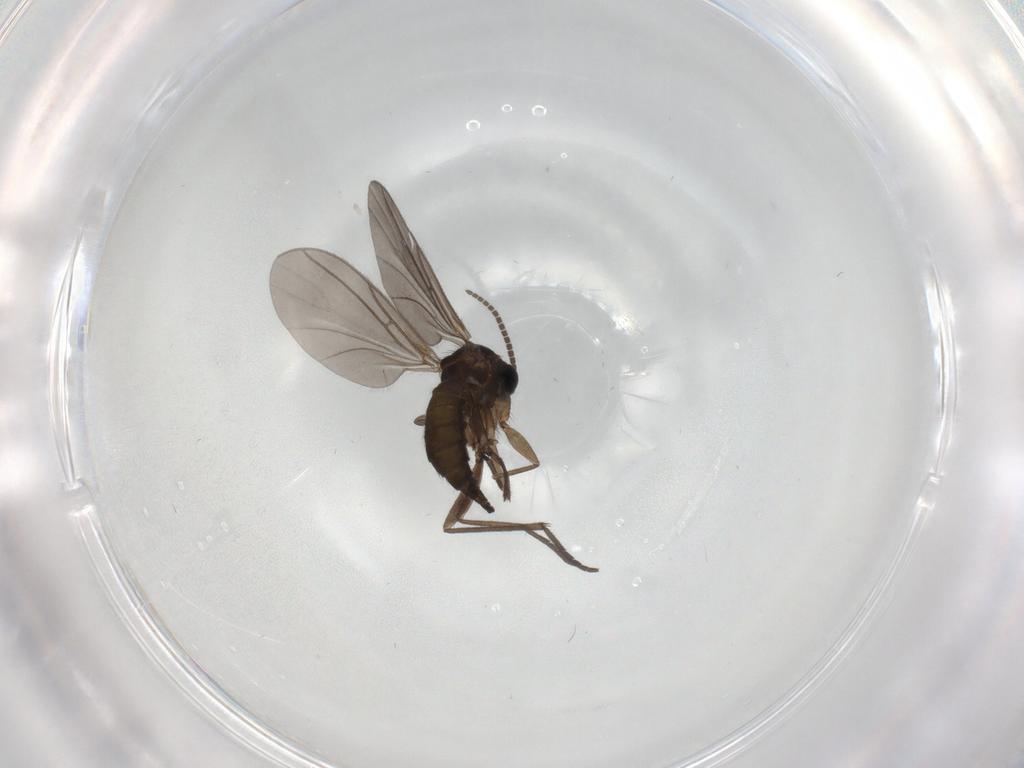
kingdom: Animalia
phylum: Arthropoda
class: Insecta
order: Diptera
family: Sciaridae
